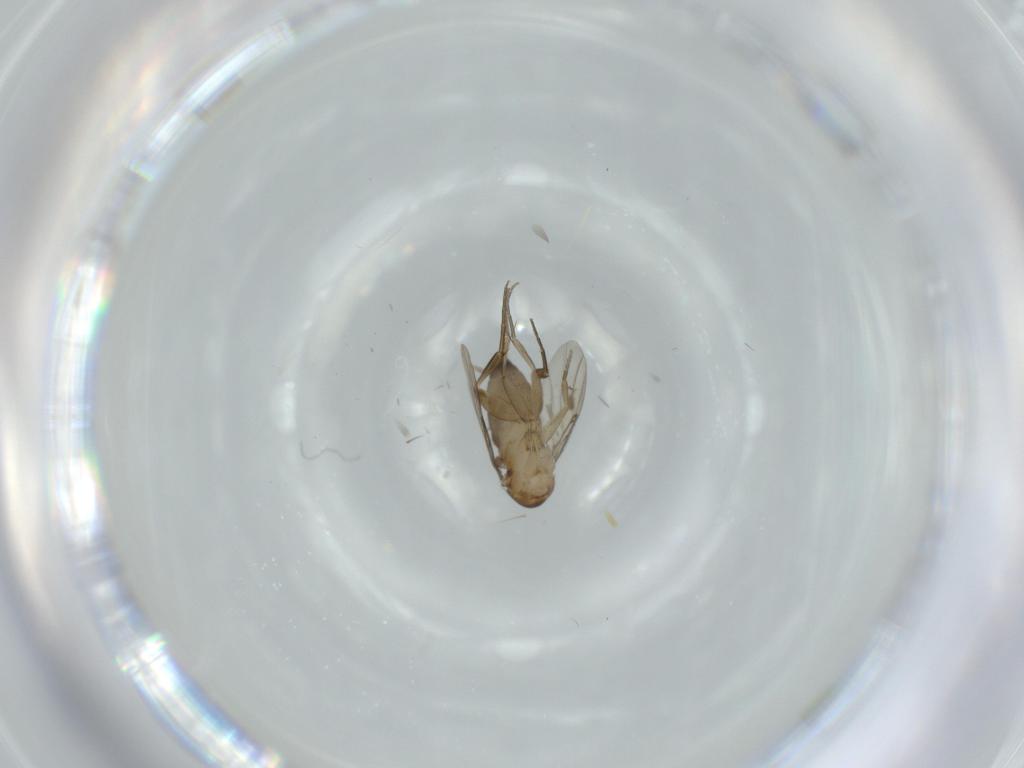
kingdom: Animalia
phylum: Arthropoda
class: Insecta
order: Diptera
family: Phoridae
